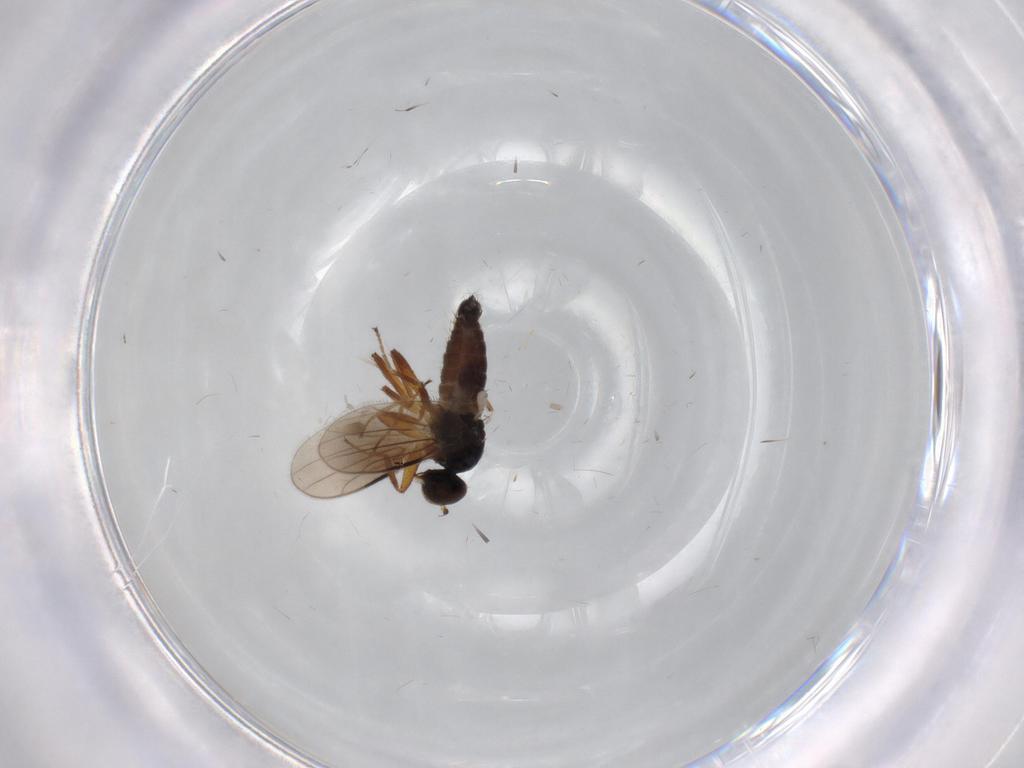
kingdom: Animalia
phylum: Arthropoda
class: Insecta
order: Diptera
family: Hybotidae
